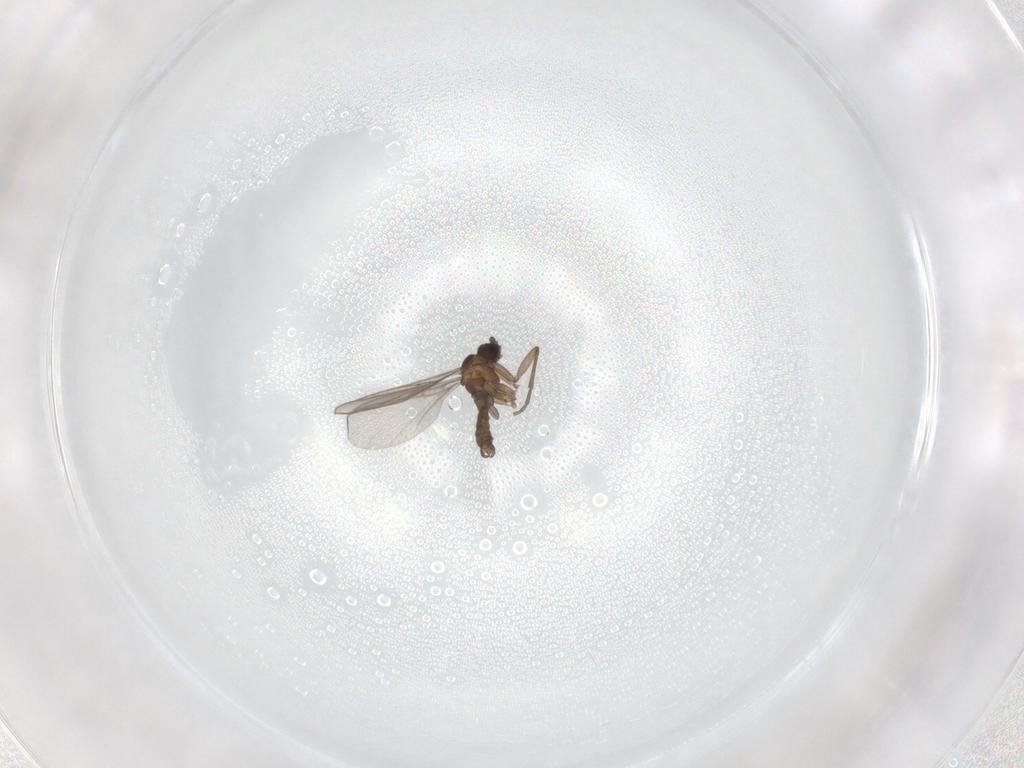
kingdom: Animalia
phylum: Arthropoda
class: Insecta
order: Diptera
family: Sciaridae
